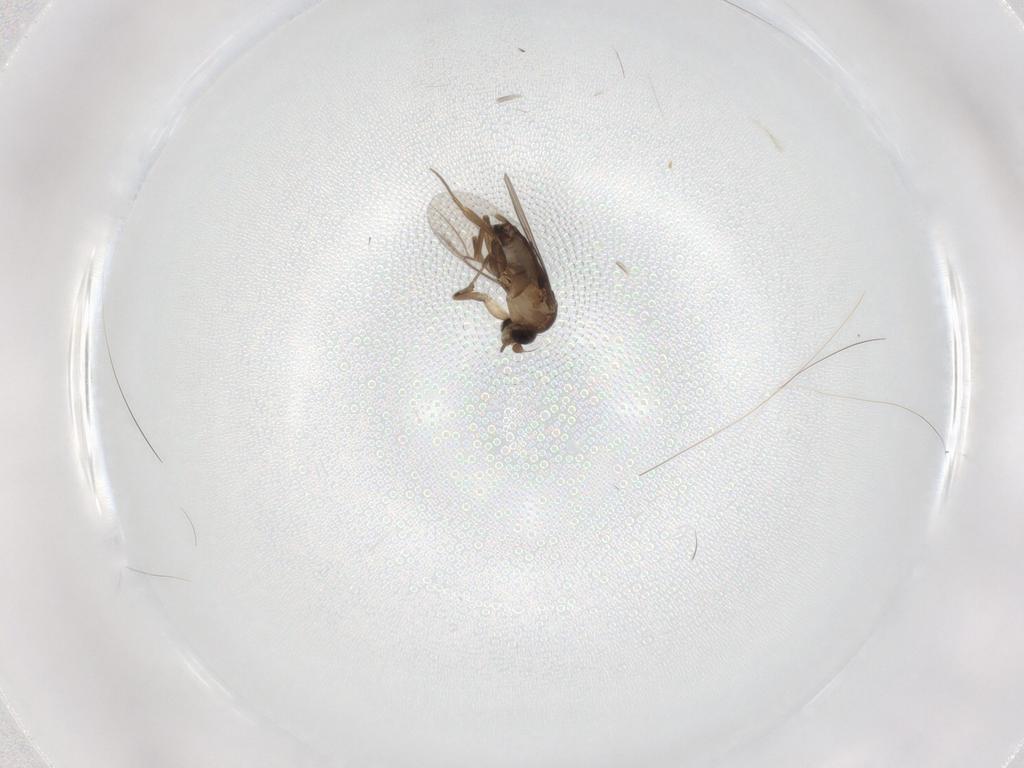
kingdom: Animalia
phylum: Arthropoda
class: Insecta
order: Diptera
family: Phoridae
